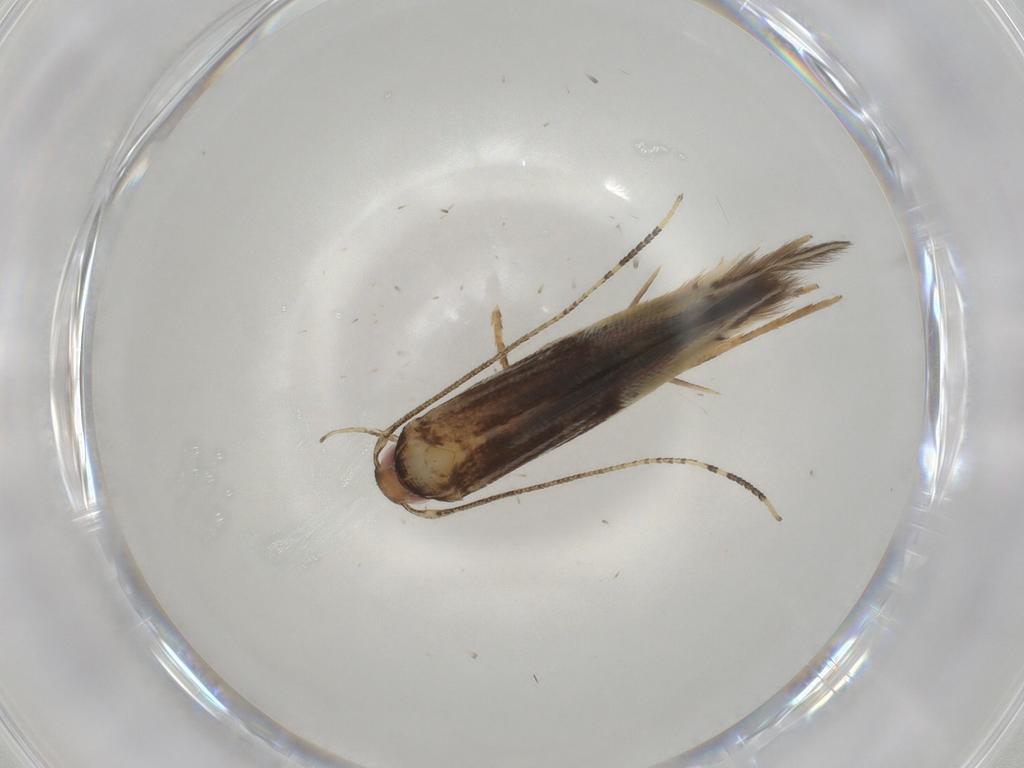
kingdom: Animalia
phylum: Arthropoda
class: Insecta
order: Lepidoptera
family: Cosmopterigidae
